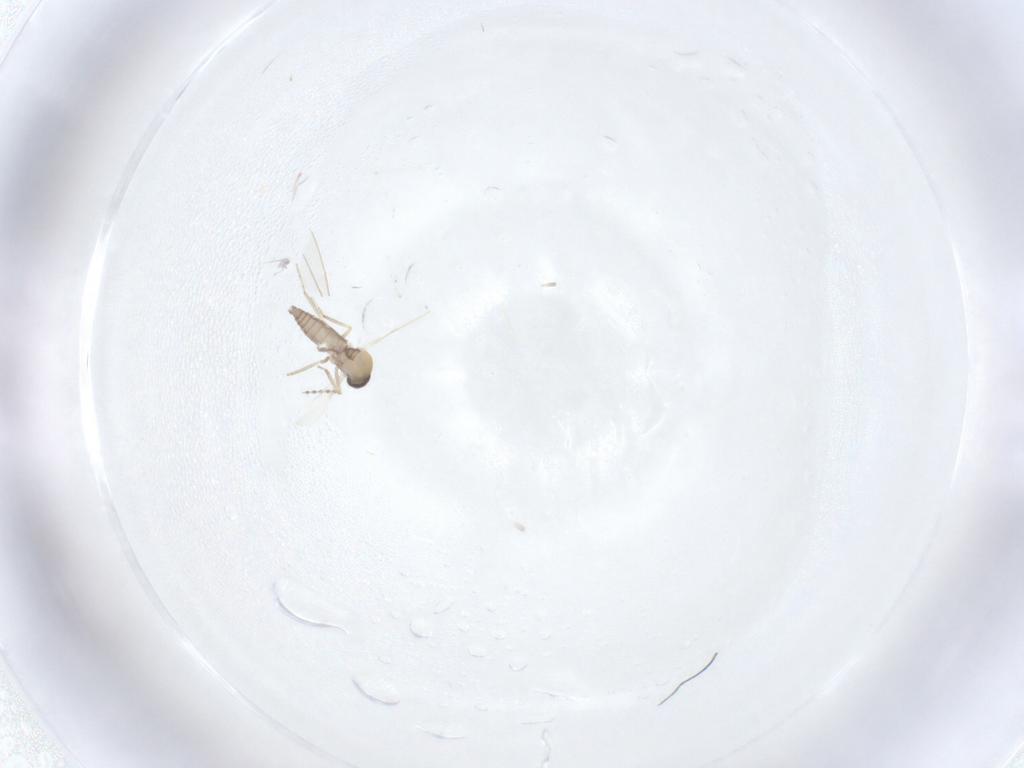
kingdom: Animalia
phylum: Arthropoda
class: Insecta
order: Diptera
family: Ceratopogonidae
